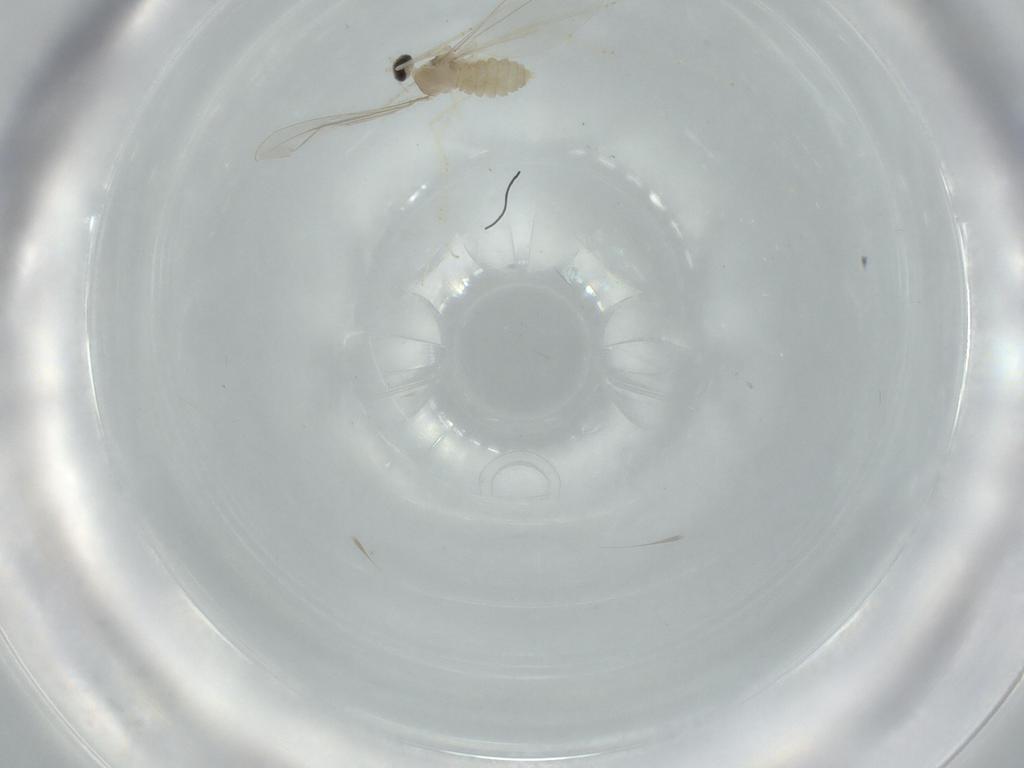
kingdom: Animalia
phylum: Arthropoda
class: Insecta
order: Diptera
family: Cecidomyiidae
